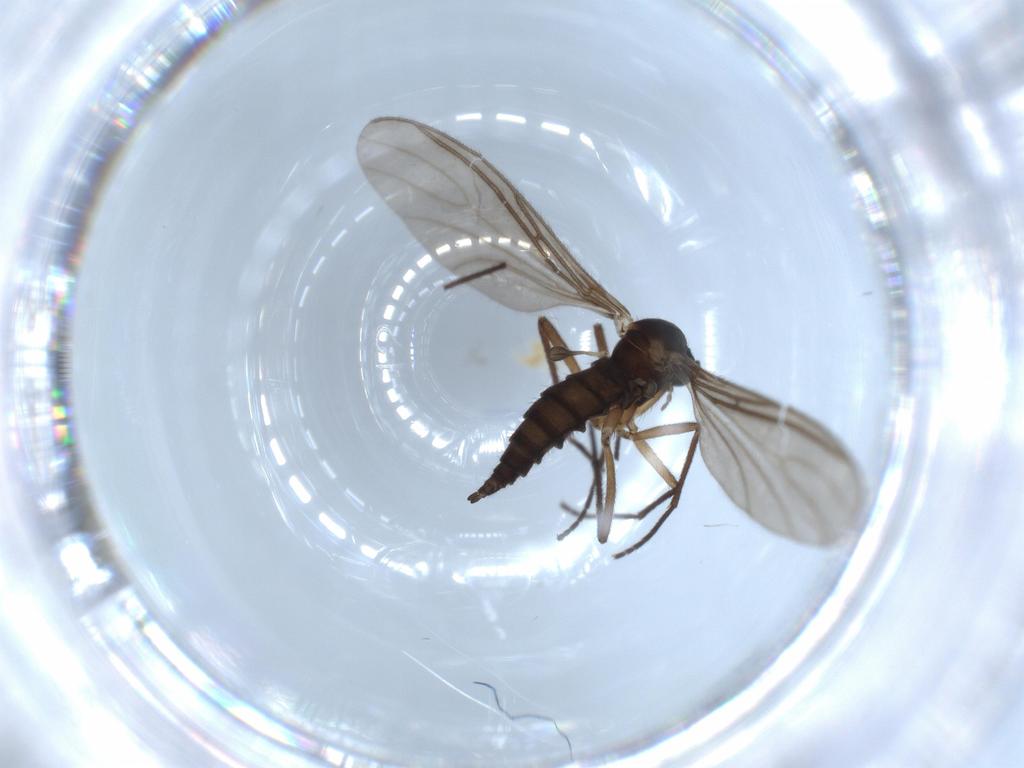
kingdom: Animalia
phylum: Arthropoda
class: Insecta
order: Diptera
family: Sciaridae
